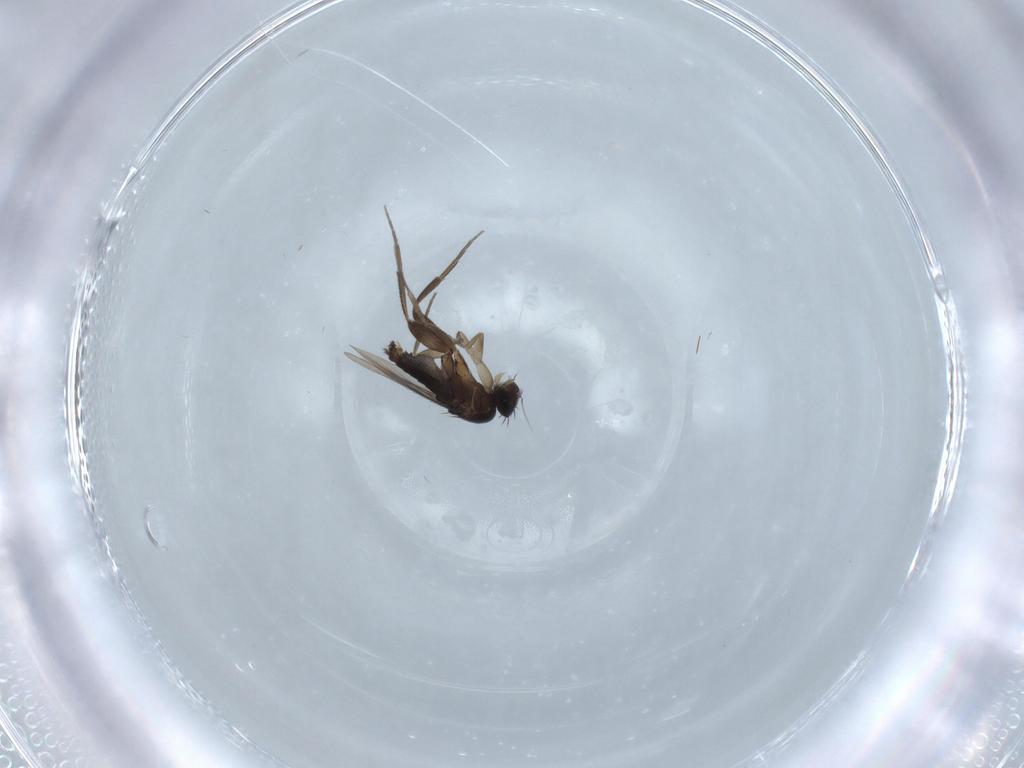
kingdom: Animalia
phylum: Arthropoda
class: Insecta
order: Diptera
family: Phoridae
